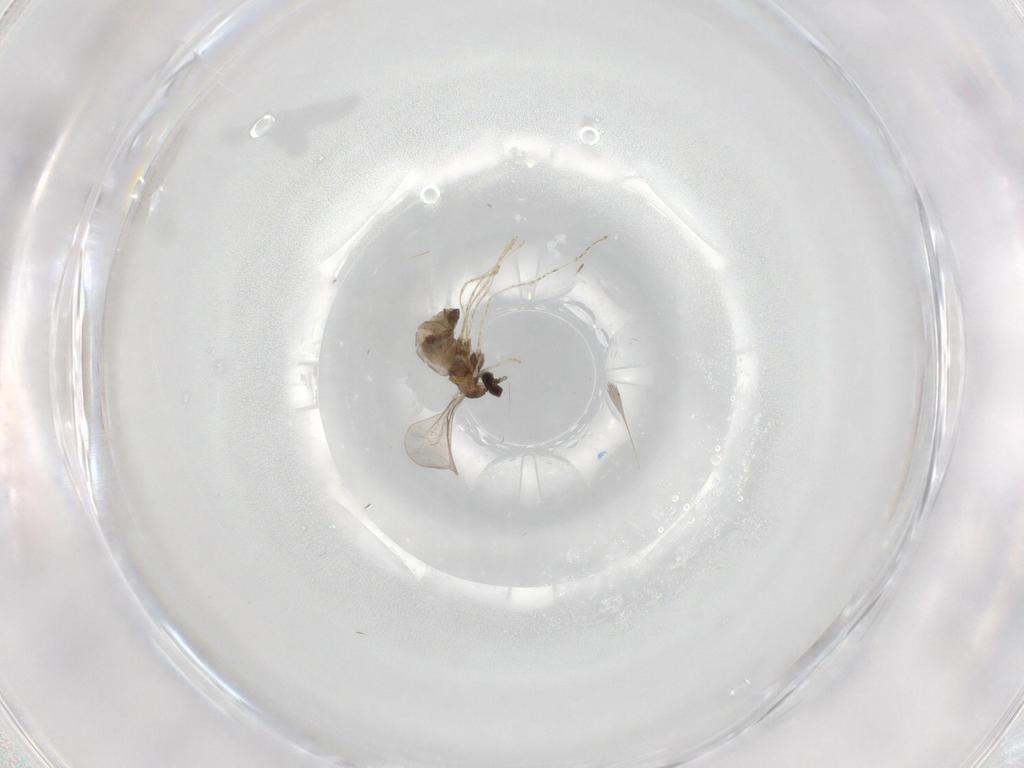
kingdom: Animalia
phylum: Arthropoda
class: Insecta
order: Diptera
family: Cecidomyiidae
